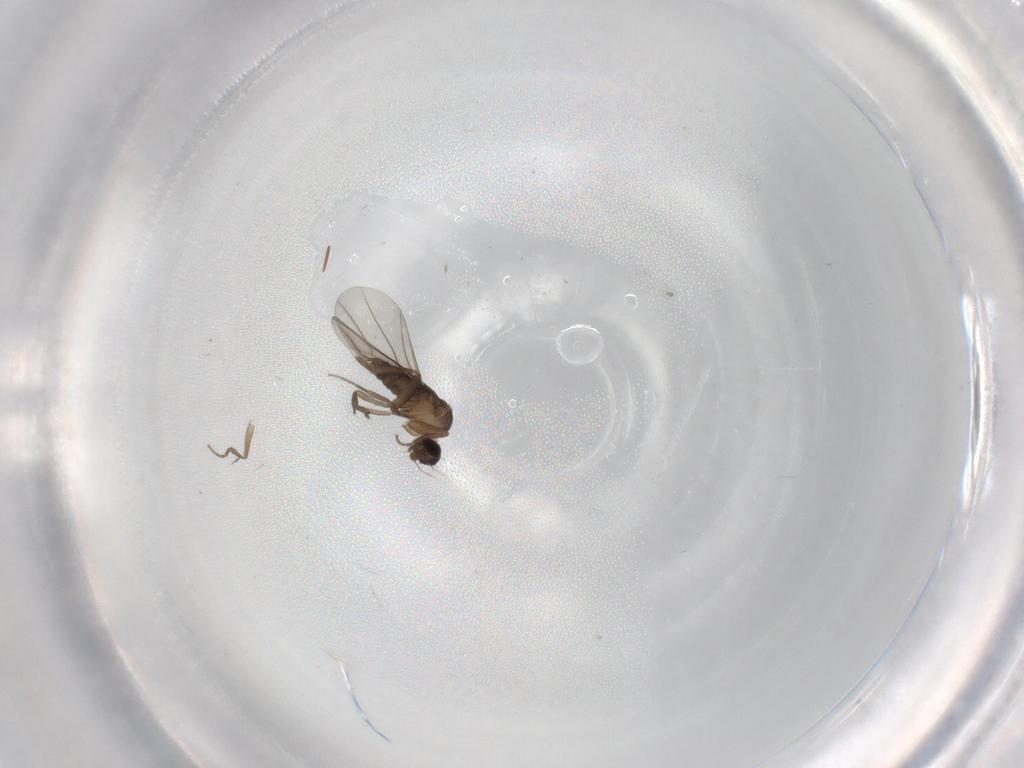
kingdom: Animalia
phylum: Arthropoda
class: Insecta
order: Diptera
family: Phoridae
